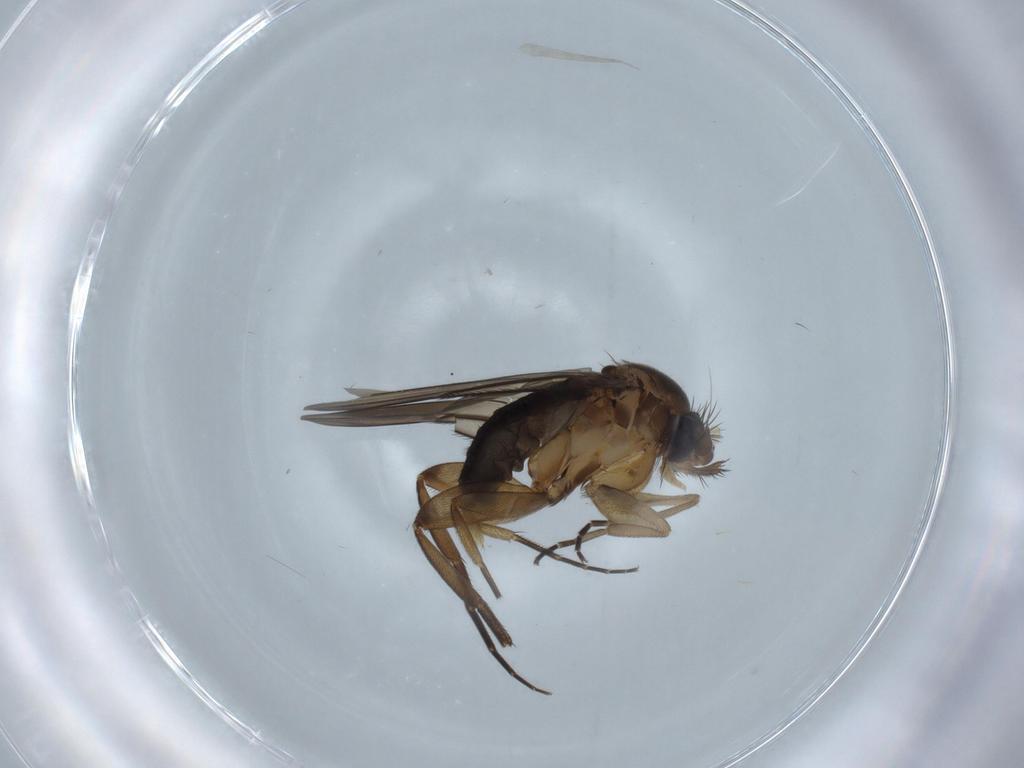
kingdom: Animalia
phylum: Arthropoda
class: Insecta
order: Diptera
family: Phoridae
